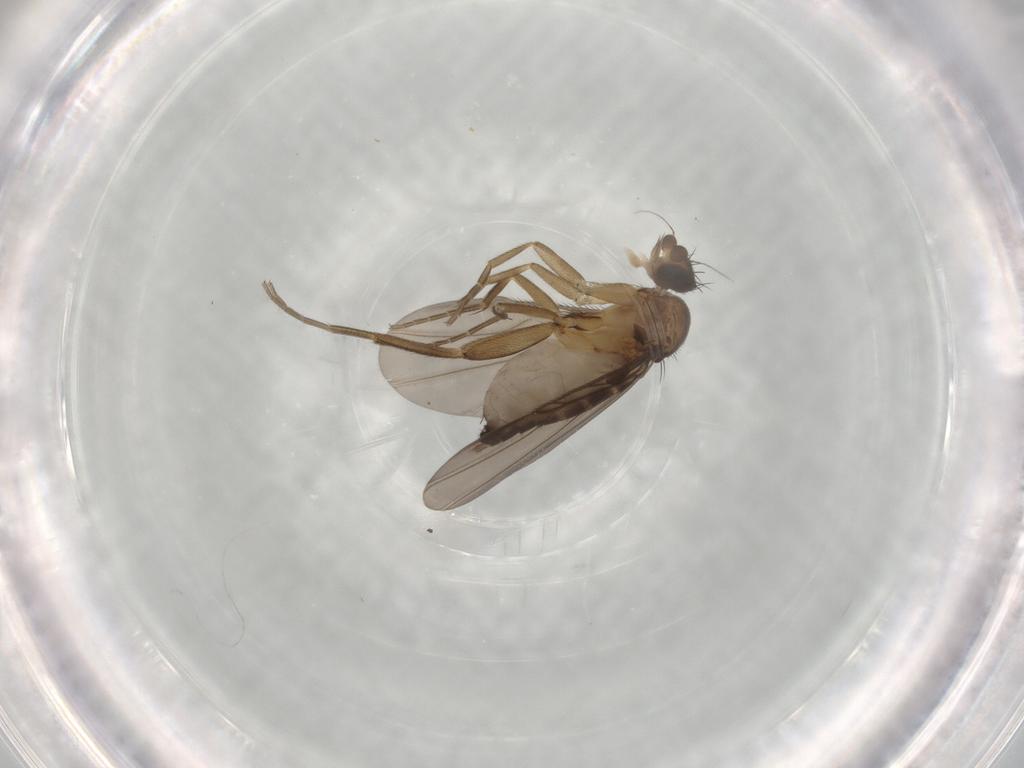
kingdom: Animalia
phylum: Arthropoda
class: Insecta
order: Diptera
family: Phoridae
